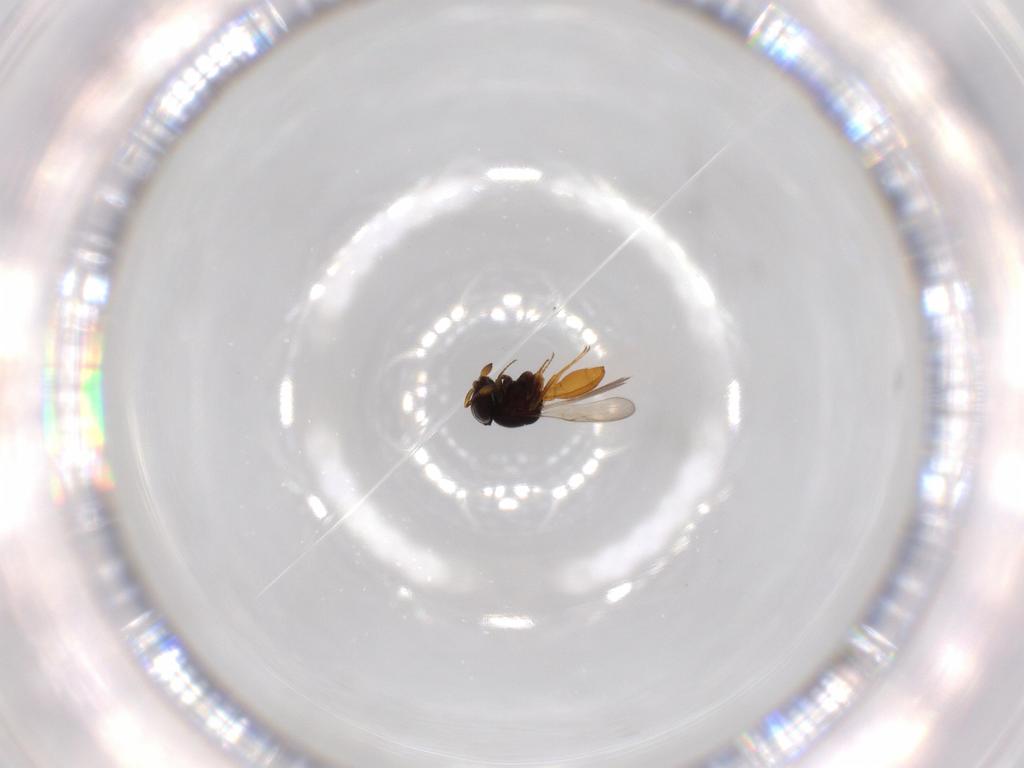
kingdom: Animalia
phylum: Arthropoda
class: Insecta
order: Hymenoptera
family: Scelionidae
